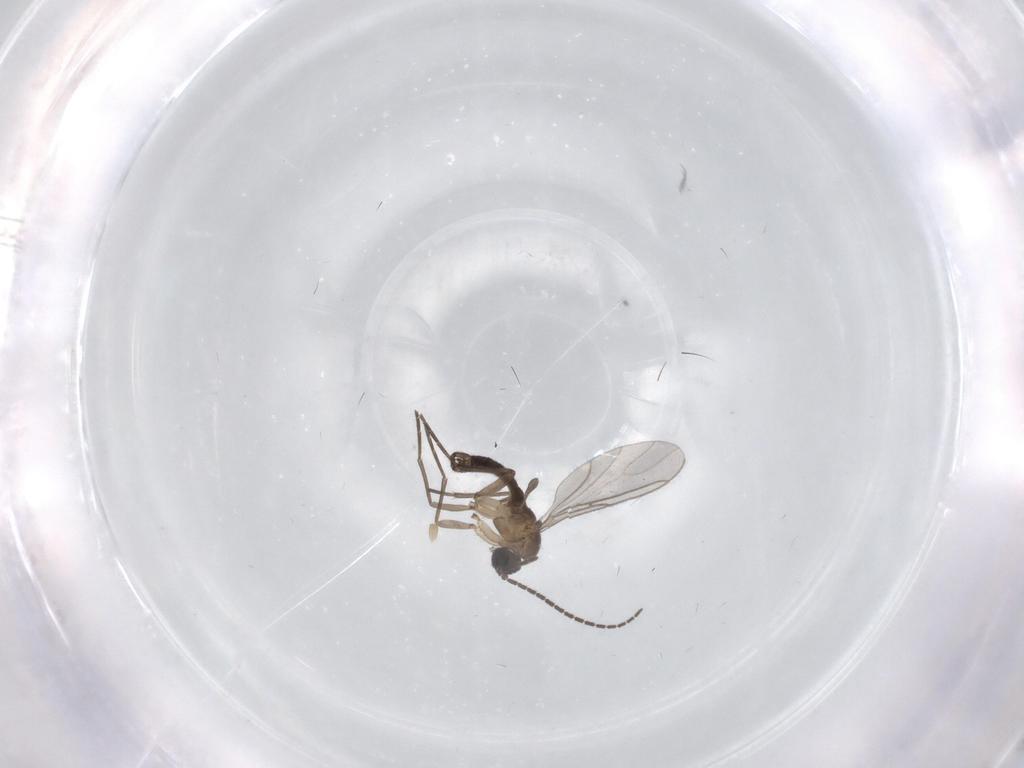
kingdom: Animalia
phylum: Arthropoda
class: Insecta
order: Diptera
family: Sciaridae
